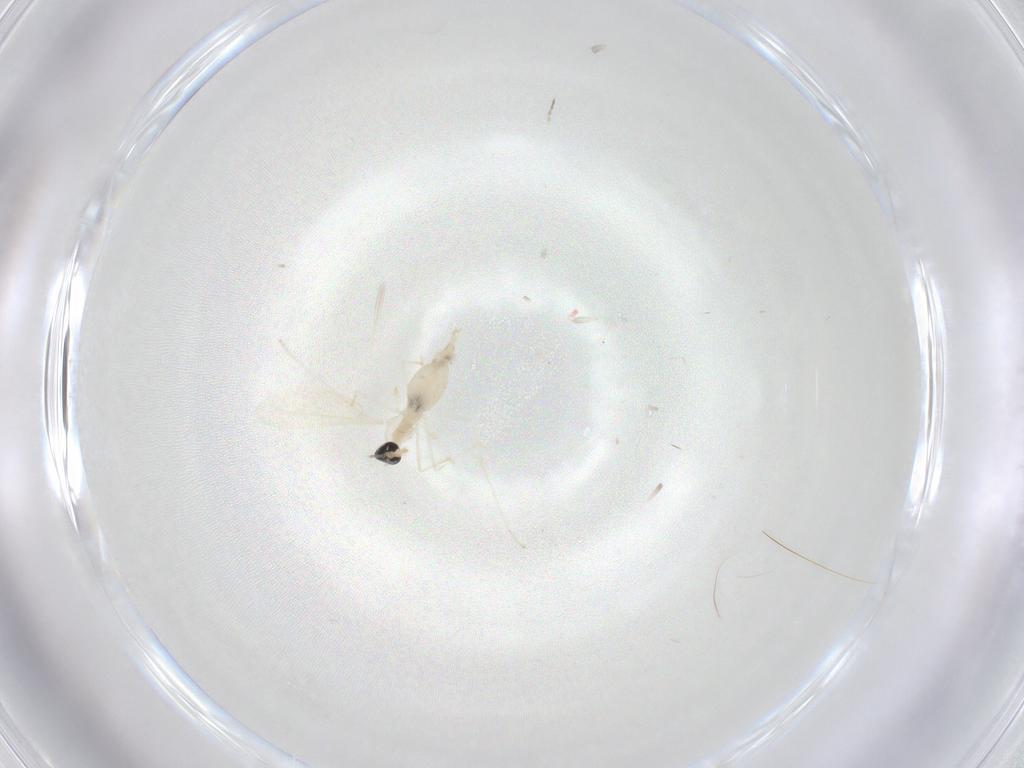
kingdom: Animalia
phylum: Arthropoda
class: Insecta
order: Diptera
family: Cecidomyiidae
